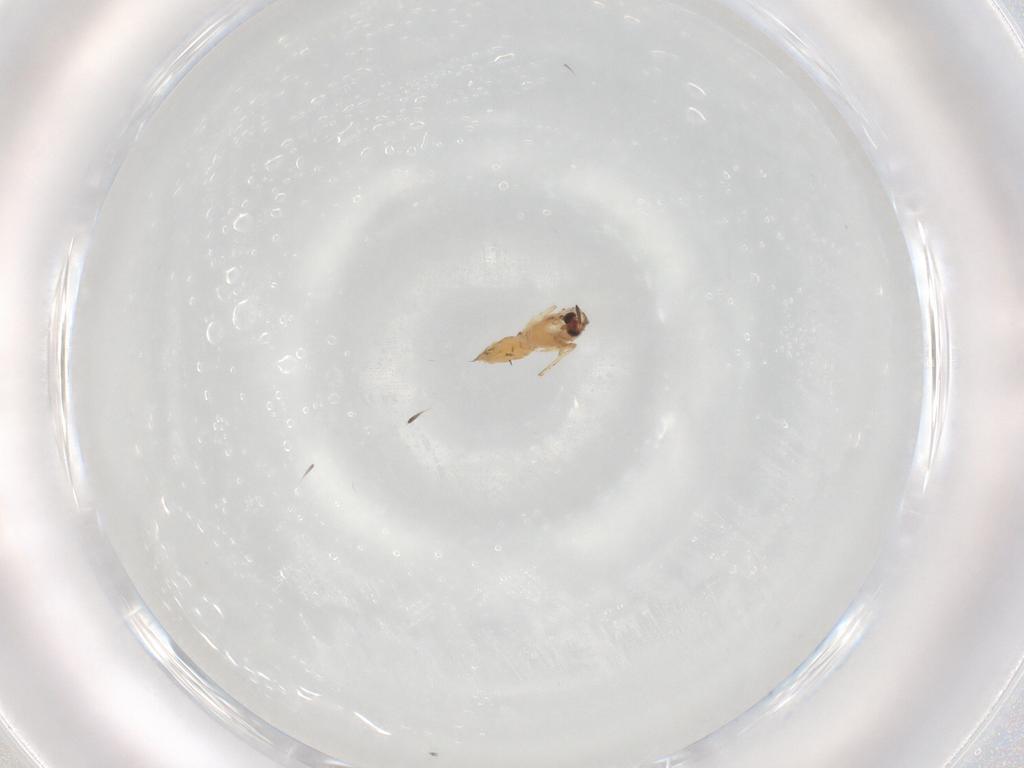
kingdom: Animalia
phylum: Arthropoda
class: Insecta
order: Diptera
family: Chironomidae
